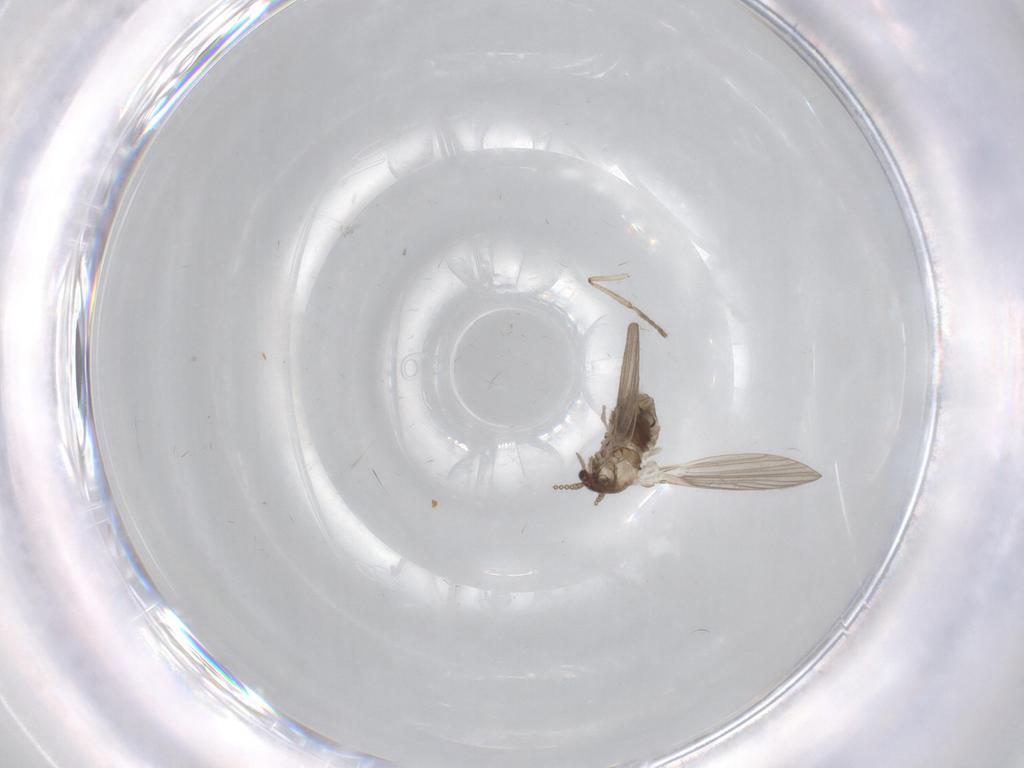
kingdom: Animalia
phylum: Arthropoda
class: Insecta
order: Diptera
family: Psychodidae
